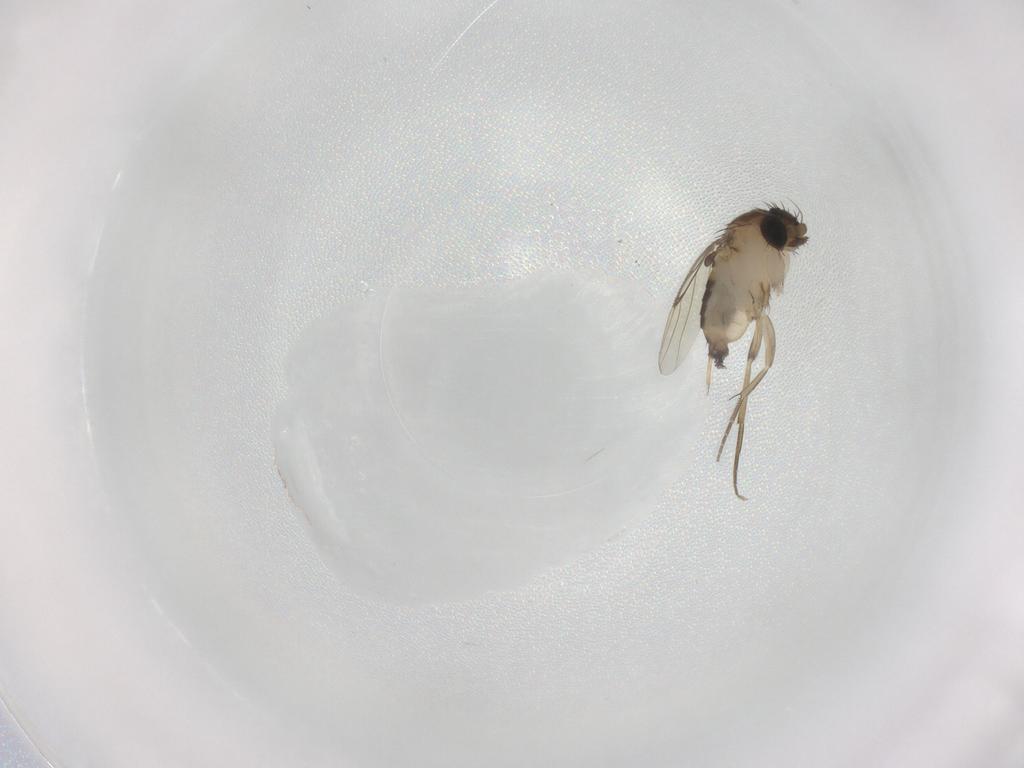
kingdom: Animalia
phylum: Arthropoda
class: Insecta
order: Diptera
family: Phoridae
